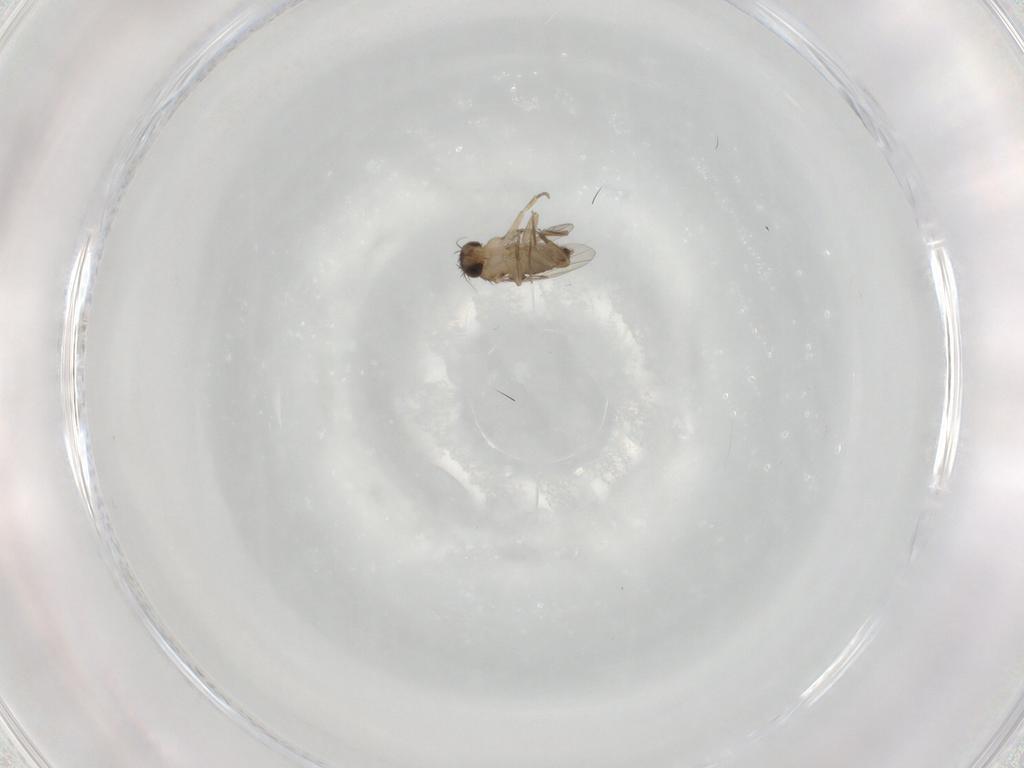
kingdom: Animalia
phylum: Arthropoda
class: Insecta
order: Diptera
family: Phoridae
